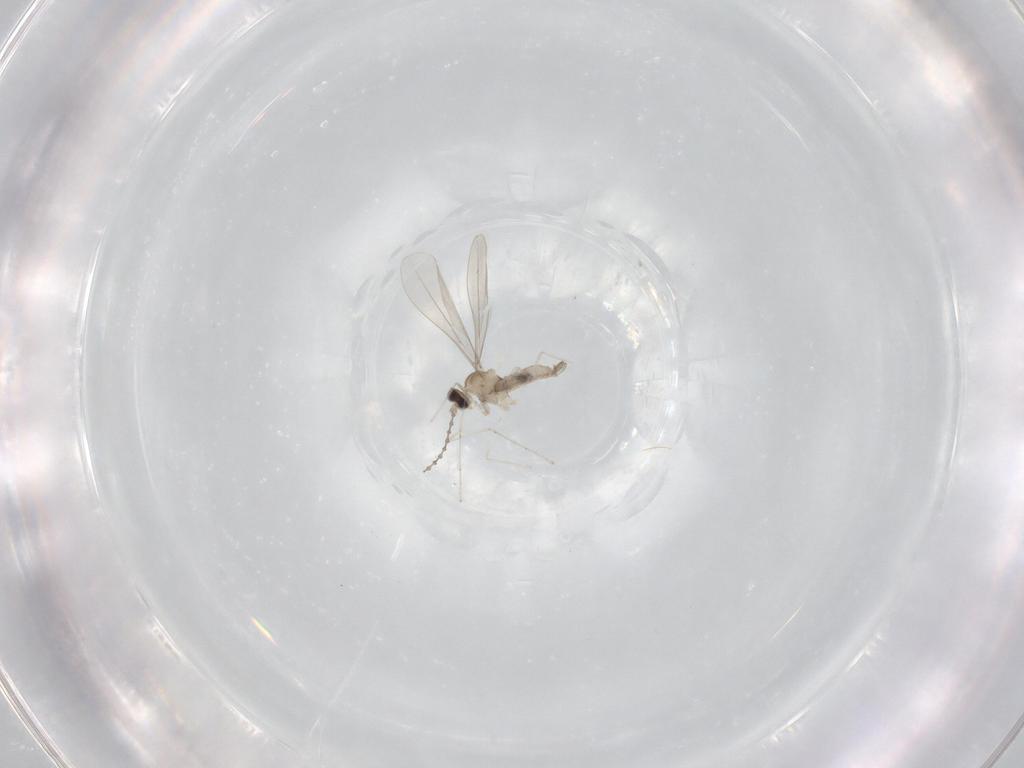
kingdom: Animalia
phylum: Arthropoda
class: Insecta
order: Diptera
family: Cecidomyiidae
